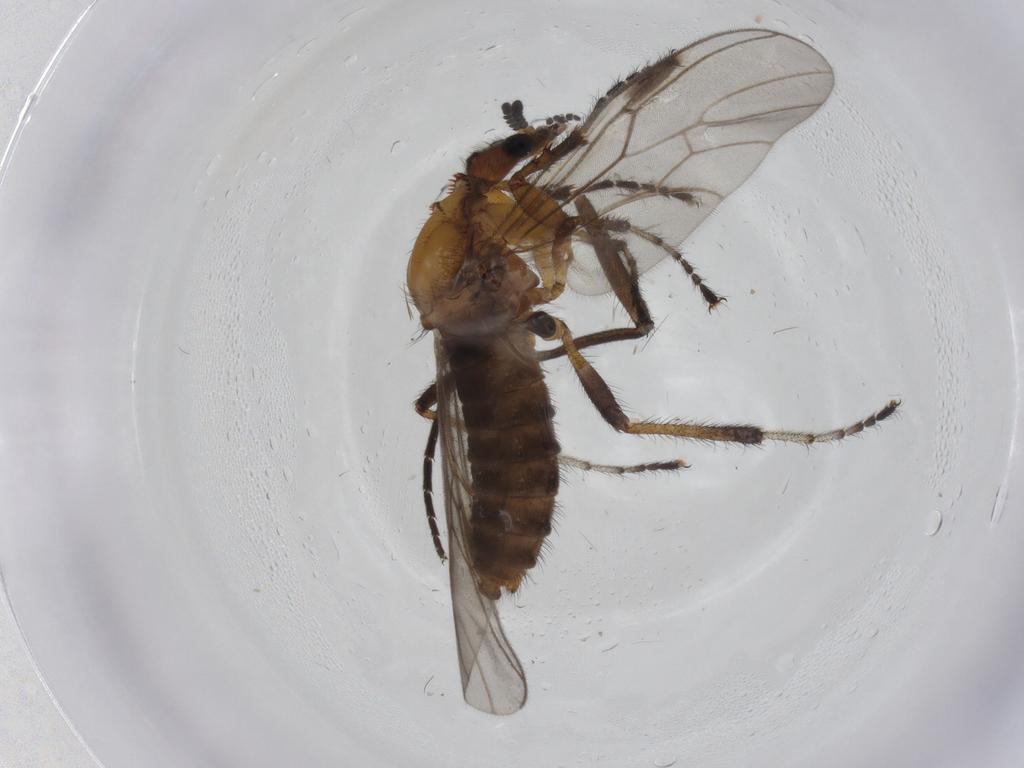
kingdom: Animalia
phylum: Arthropoda
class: Insecta
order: Diptera
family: Bibionidae
